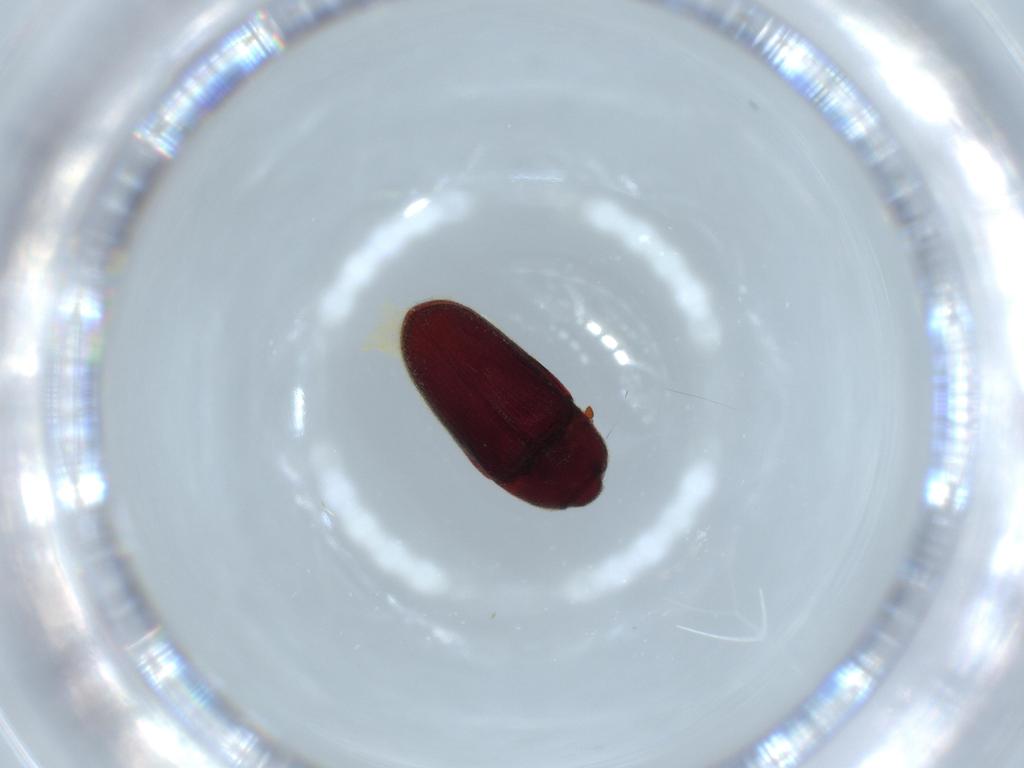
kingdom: Animalia
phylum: Arthropoda
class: Insecta
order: Coleoptera
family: Throscidae
